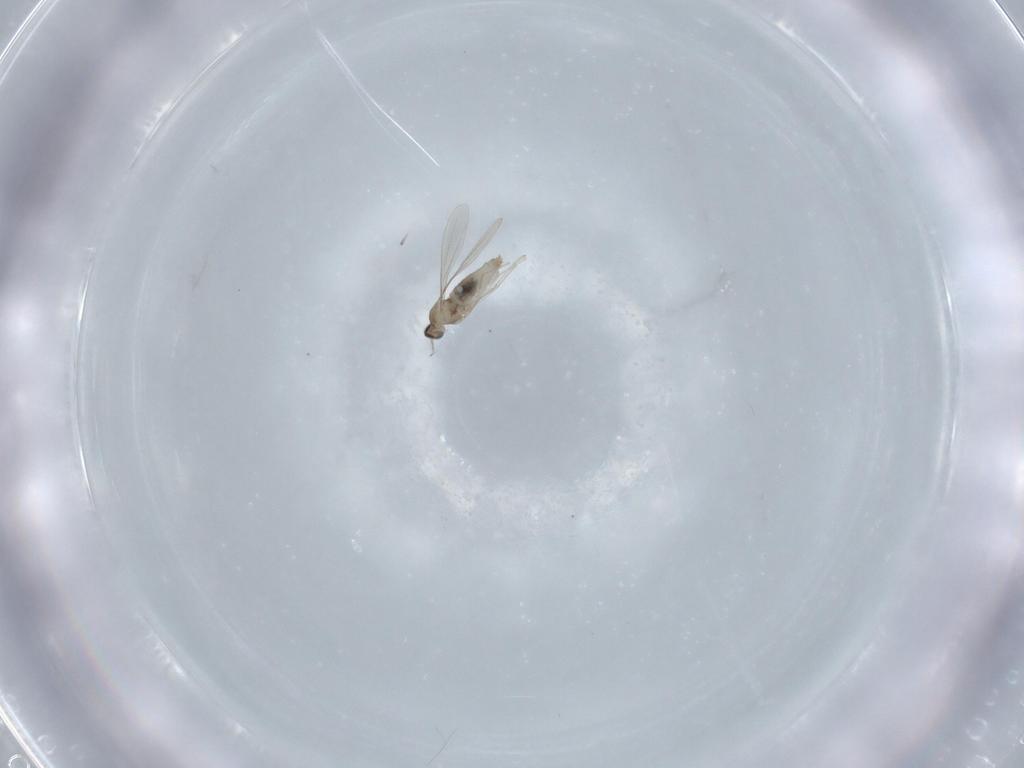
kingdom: Animalia
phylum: Arthropoda
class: Insecta
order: Diptera
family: Cecidomyiidae
